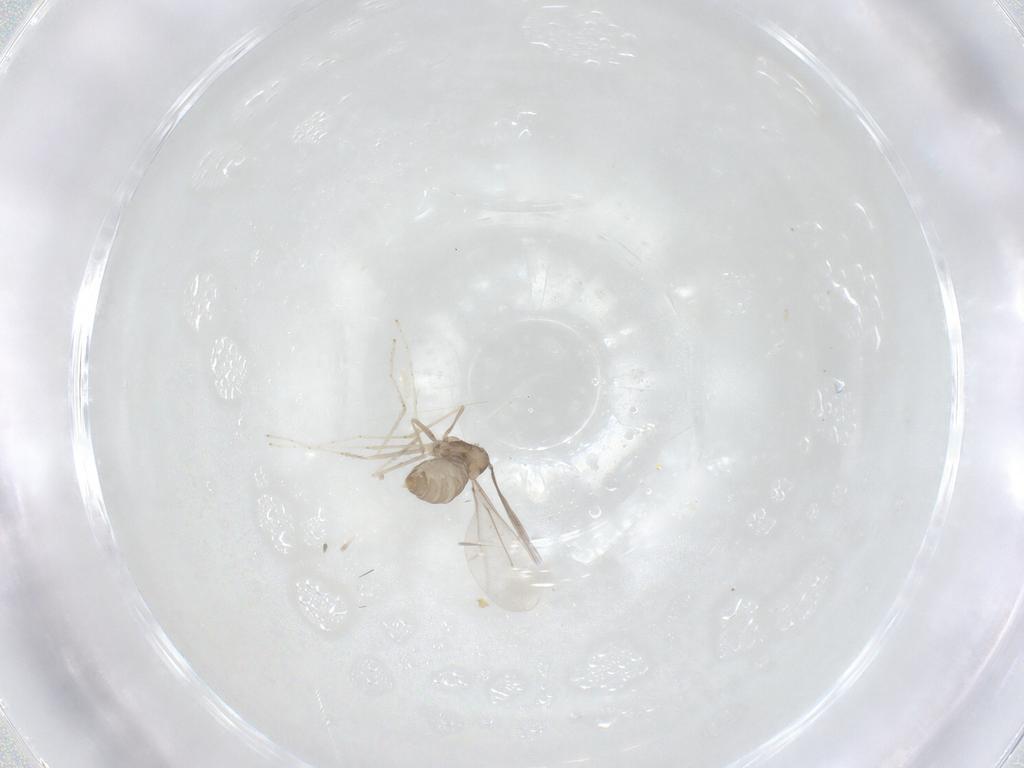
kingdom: Animalia
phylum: Arthropoda
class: Insecta
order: Diptera
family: Cecidomyiidae
